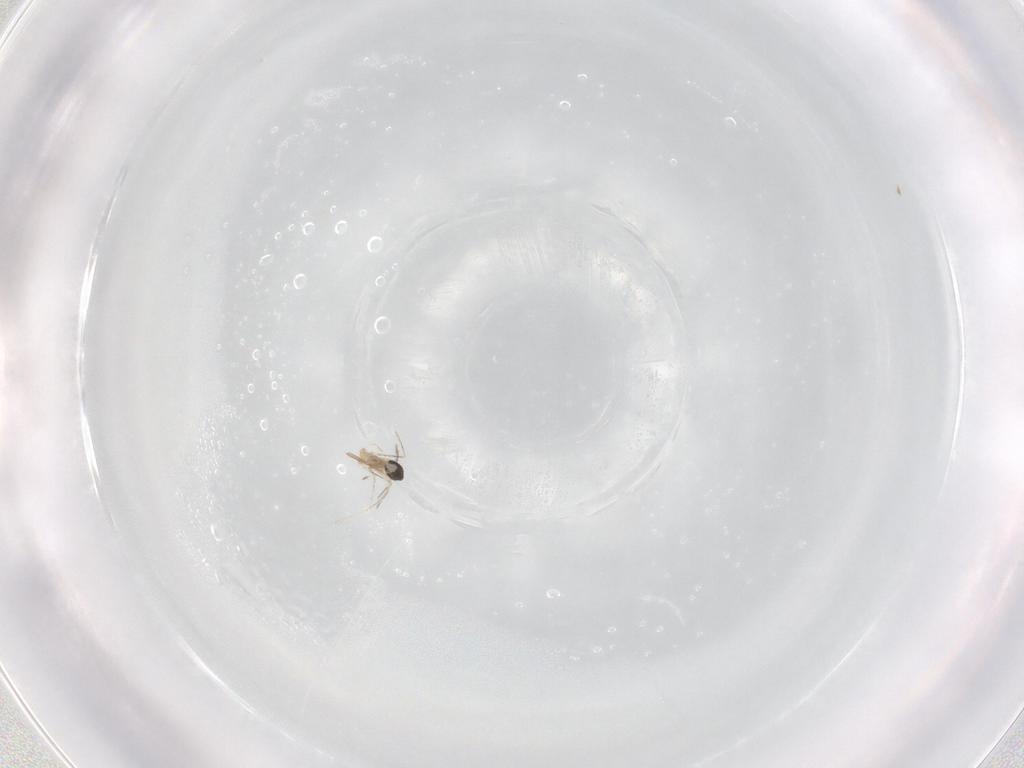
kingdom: Animalia
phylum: Arthropoda
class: Insecta
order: Diptera
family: Cecidomyiidae
